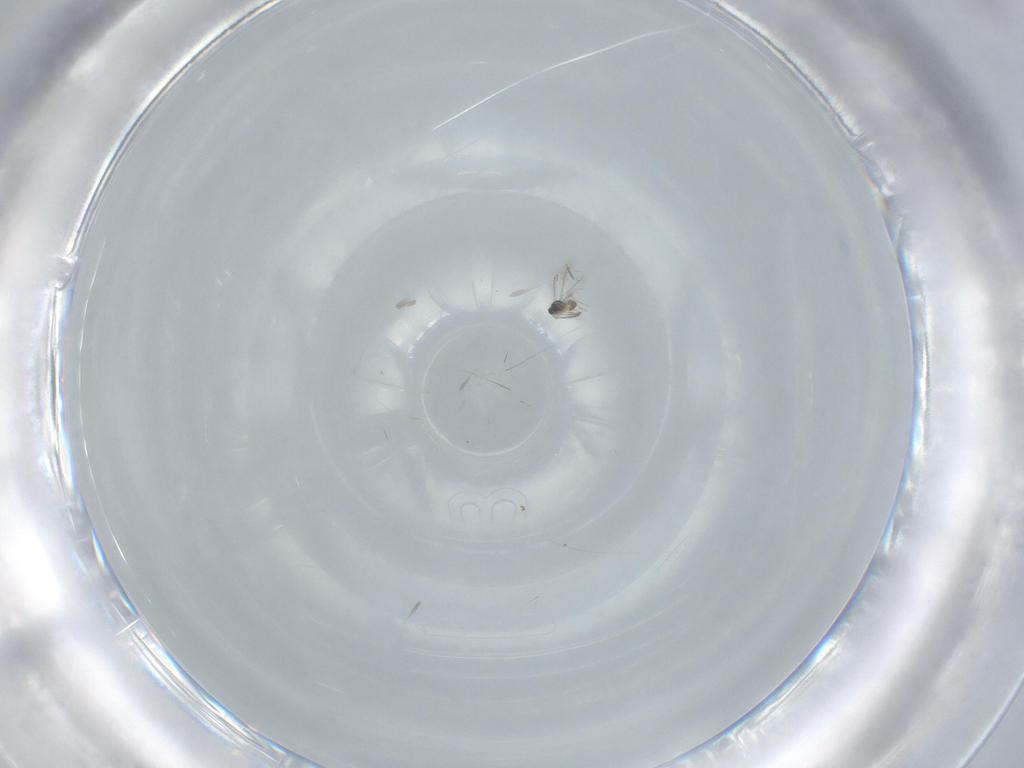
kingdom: Animalia
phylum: Arthropoda
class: Insecta
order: Hymenoptera
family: Mymaridae
